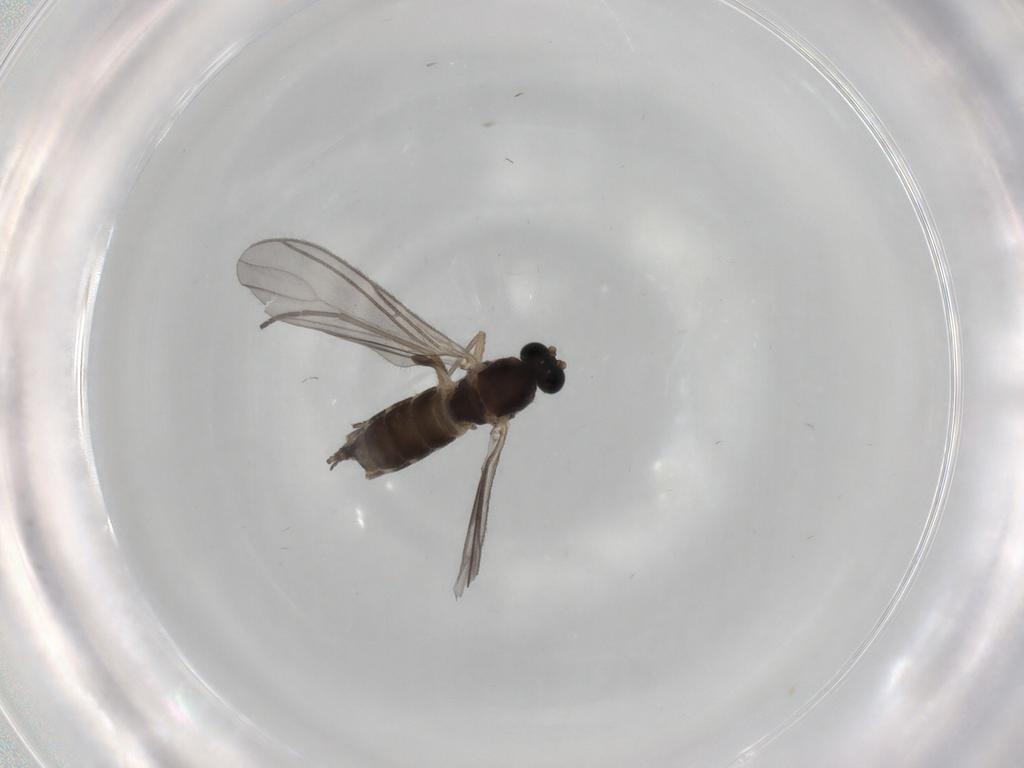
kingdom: Animalia
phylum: Arthropoda
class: Insecta
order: Diptera
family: Sciaridae
